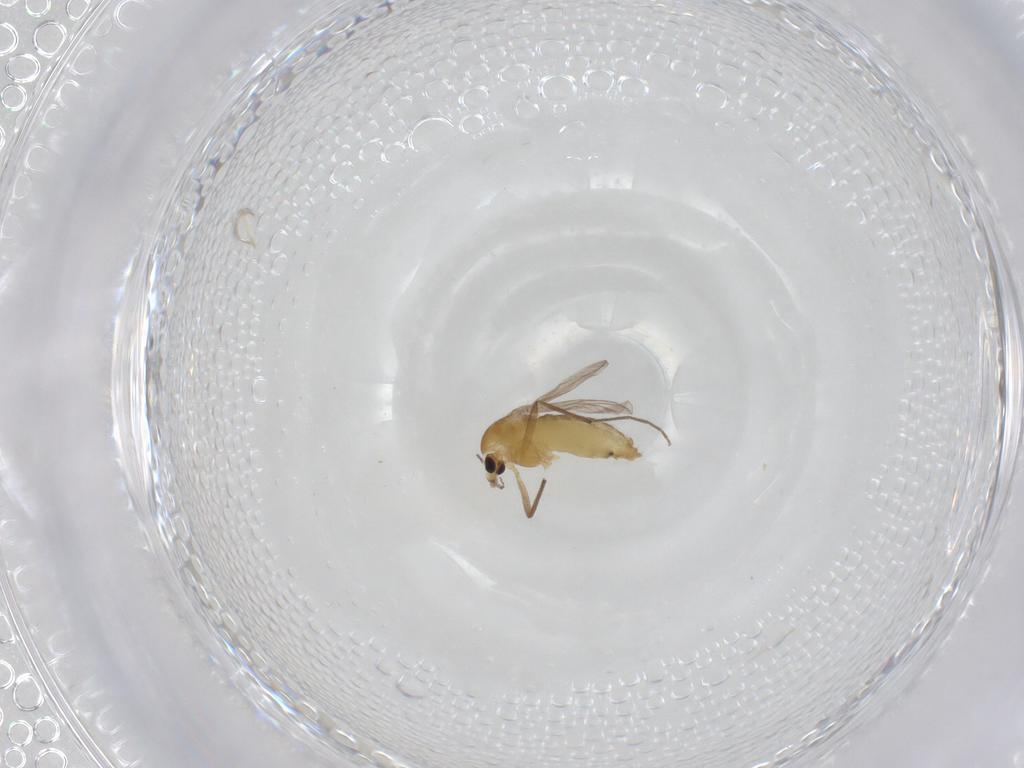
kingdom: Animalia
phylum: Arthropoda
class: Insecta
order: Diptera
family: Chironomidae
